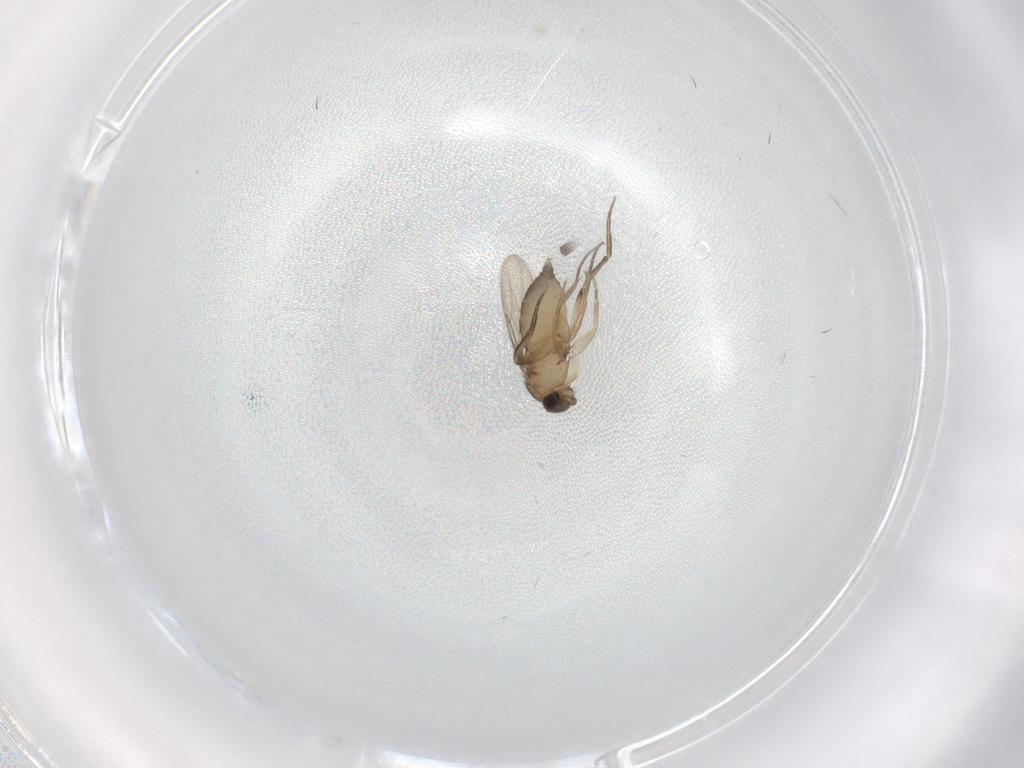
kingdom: Animalia
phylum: Arthropoda
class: Insecta
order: Diptera
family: Phoridae
